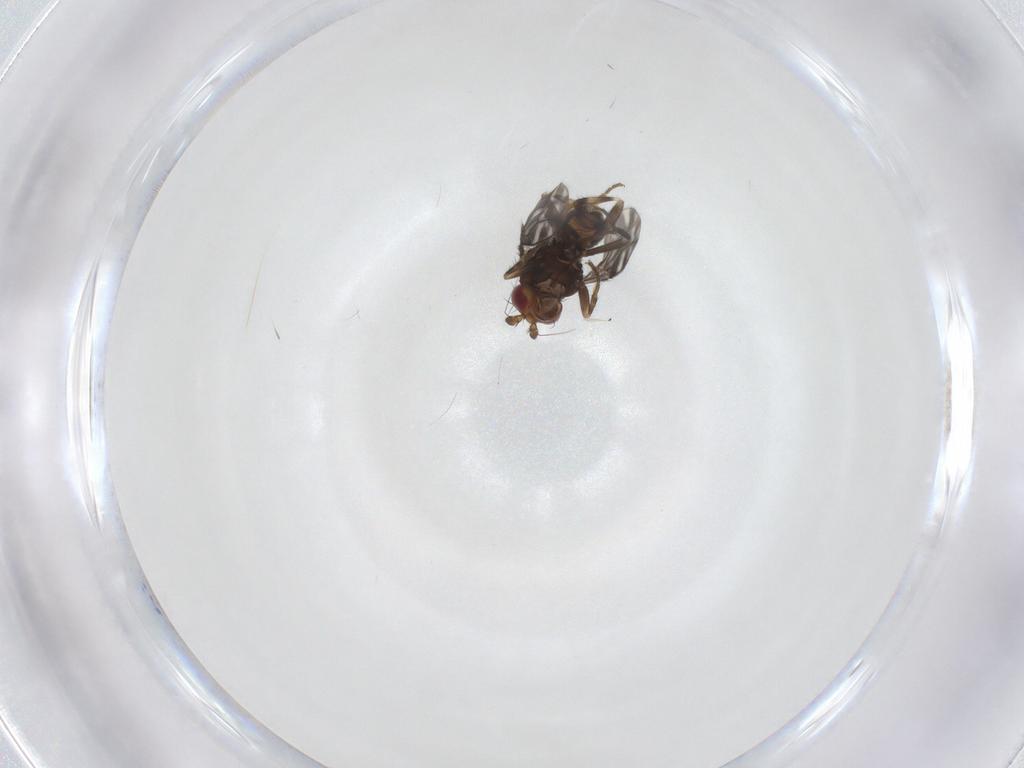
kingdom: Animalia
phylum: Arthropoda
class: Insecta
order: Diptera
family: Sphaeroceridae
